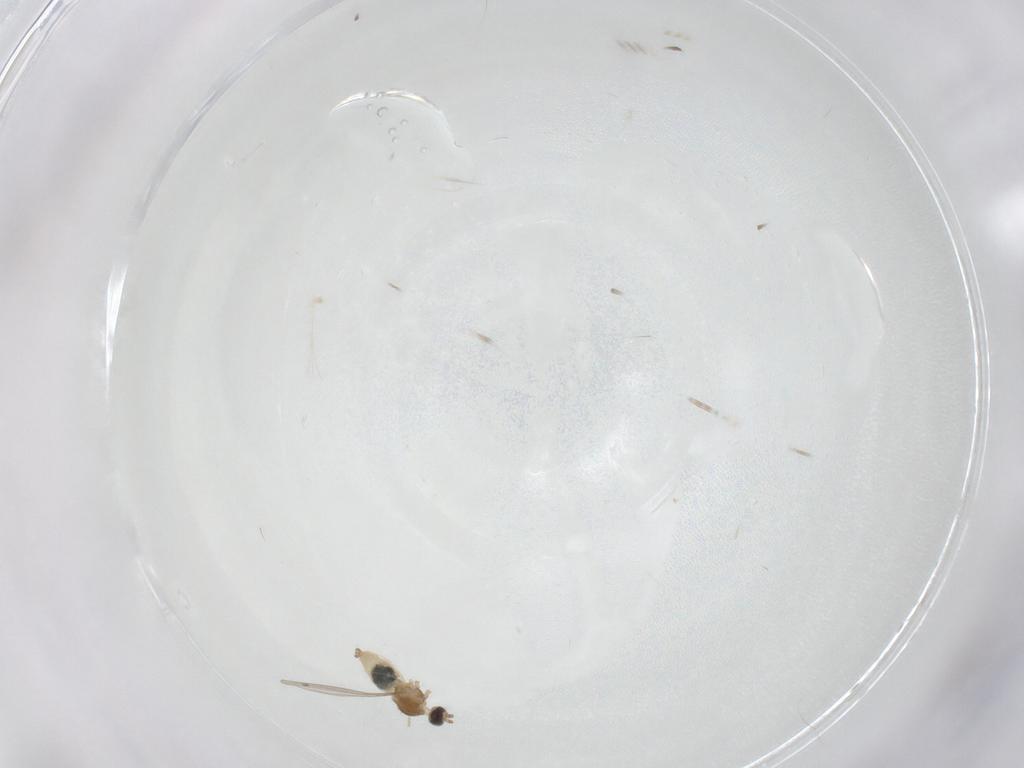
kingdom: Animalia
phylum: Arthropoda
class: Insecta
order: Diptera
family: Cecidomyiidae
